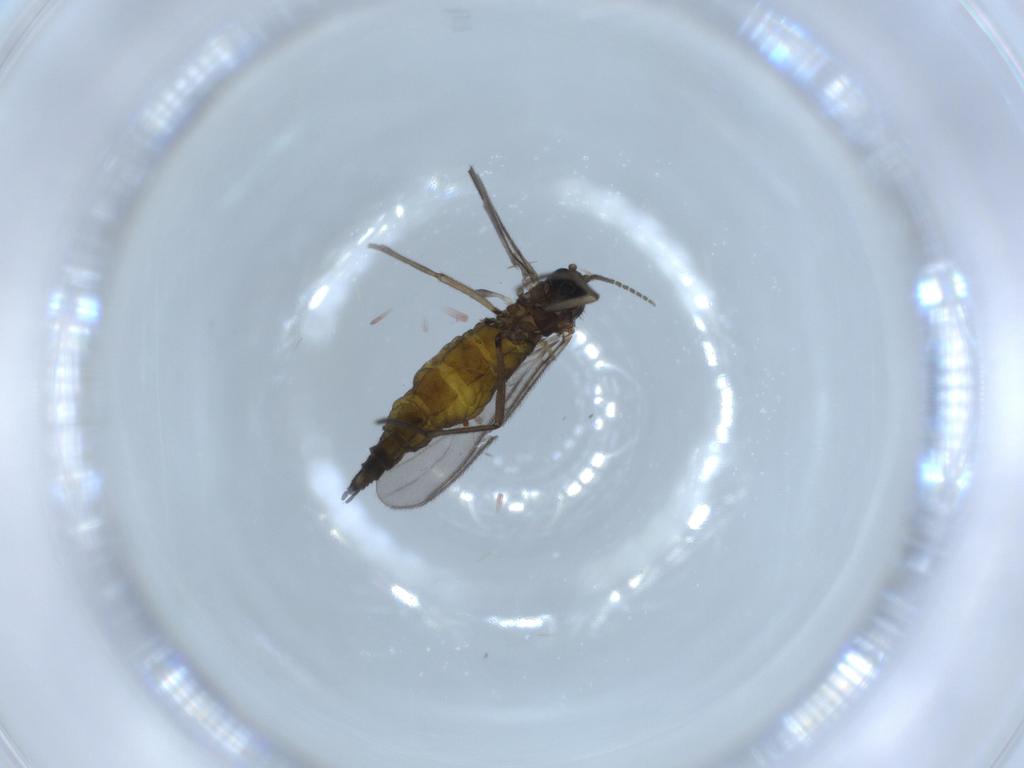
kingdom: Animalia
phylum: Arthropoda
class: Insecta
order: Diptera
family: Sciaridae
